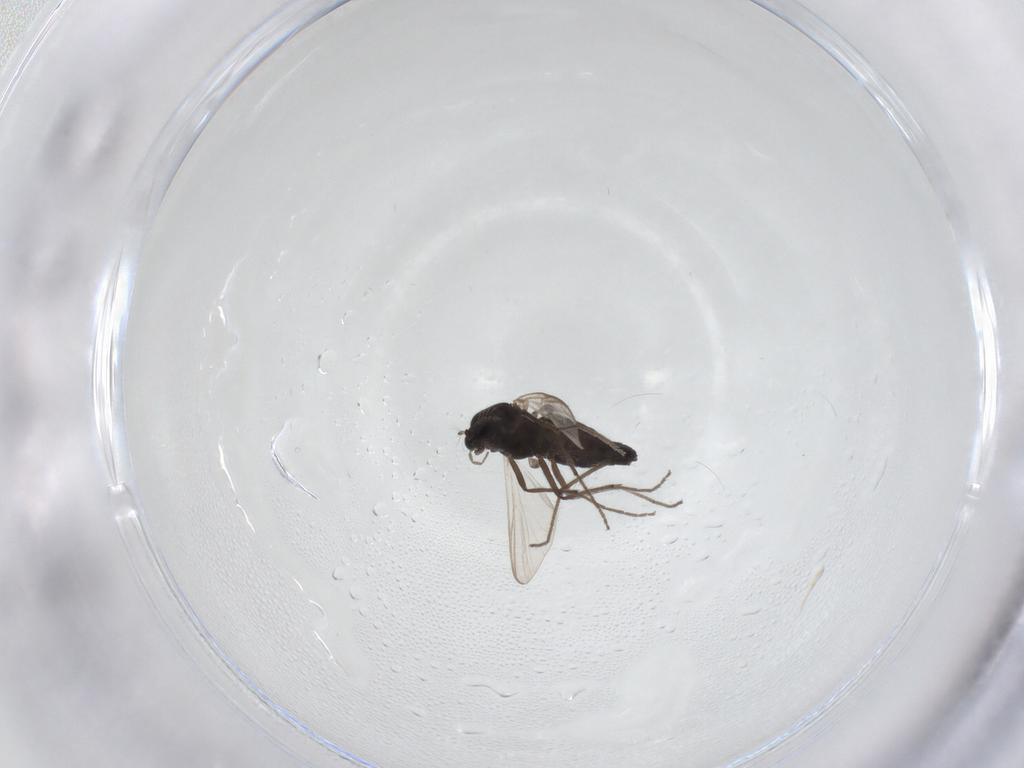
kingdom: Animalia
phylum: Arthropoda
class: Insecta
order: Diptera
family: Chironomidae
